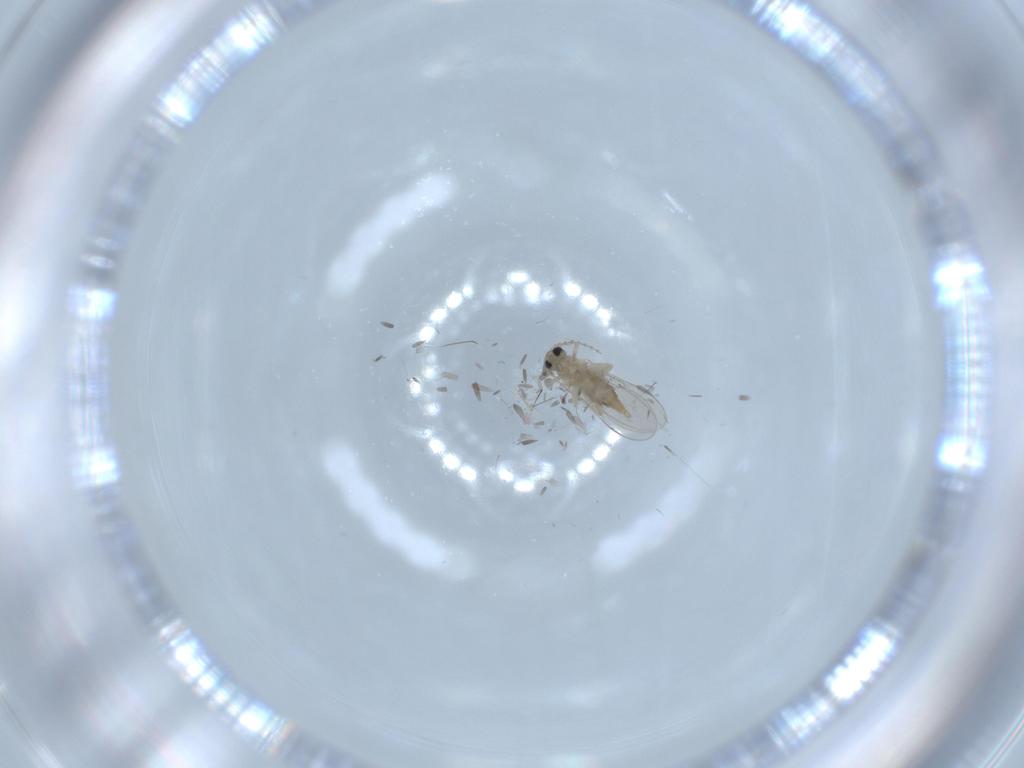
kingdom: Animalia
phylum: Arthropoda
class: Insecta
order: Diptera
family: Cecidomyiidae
